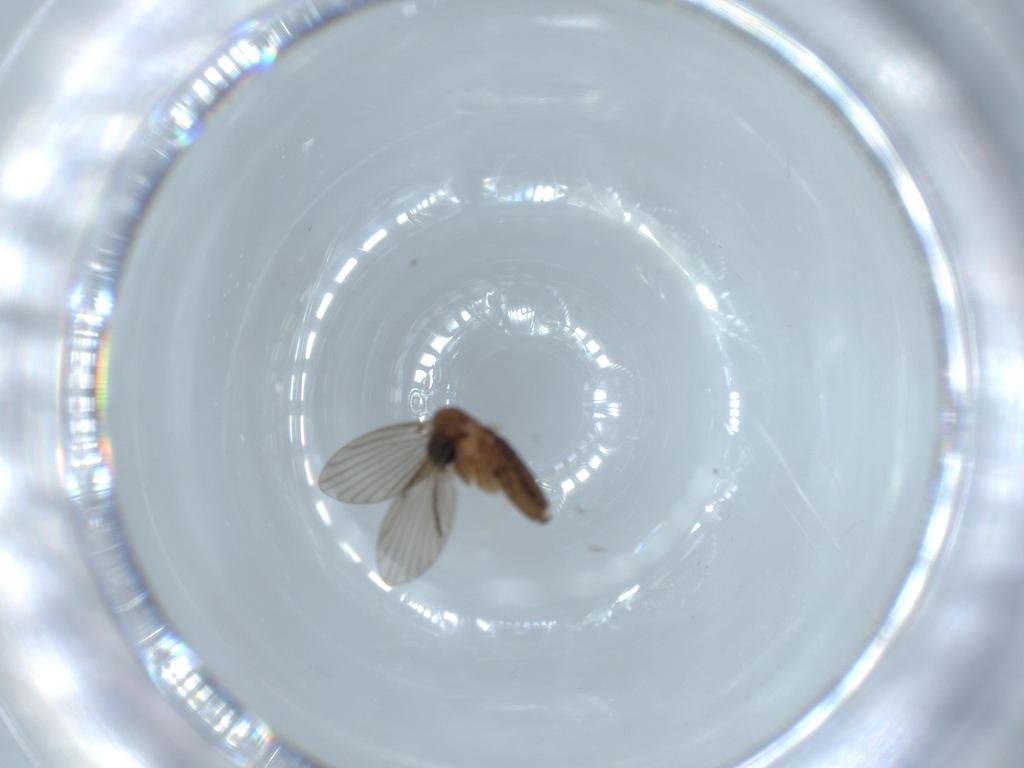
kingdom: Animalia
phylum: Arthropoda
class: Insecta
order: Diptera
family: Psychodidae
